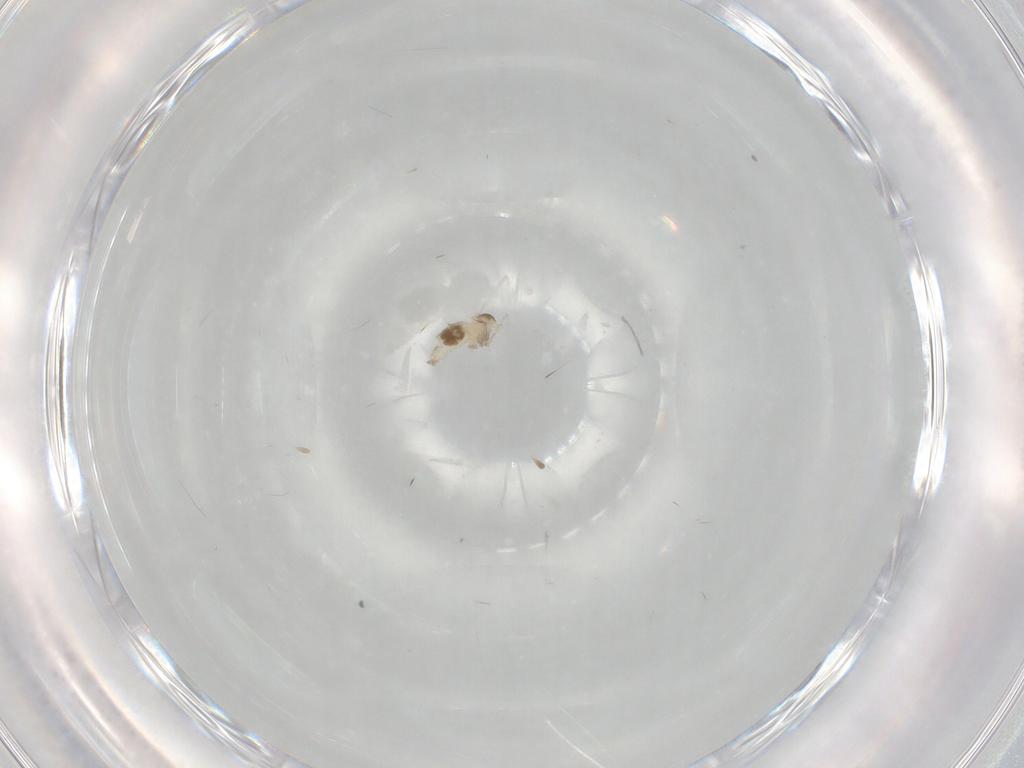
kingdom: Animalia
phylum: Arthropoda
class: Insecta
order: Diptera
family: Cecidomyiidae
